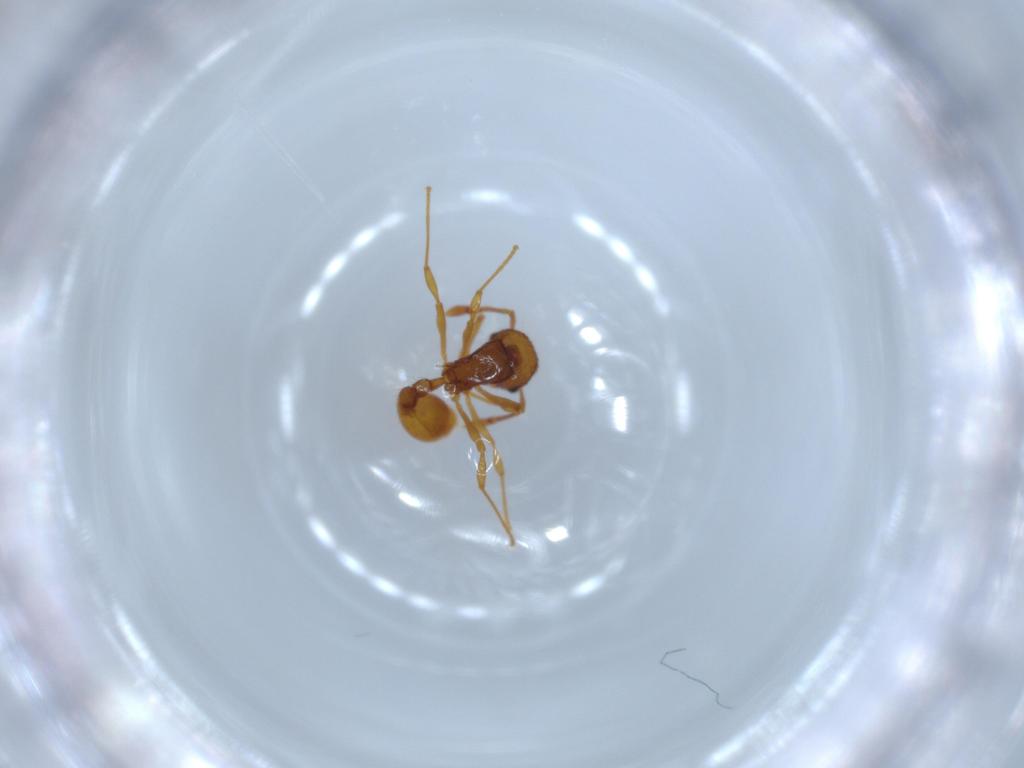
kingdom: Animalia
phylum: Arthropoda
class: Insecta
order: Hymenoptera
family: Formicidae
